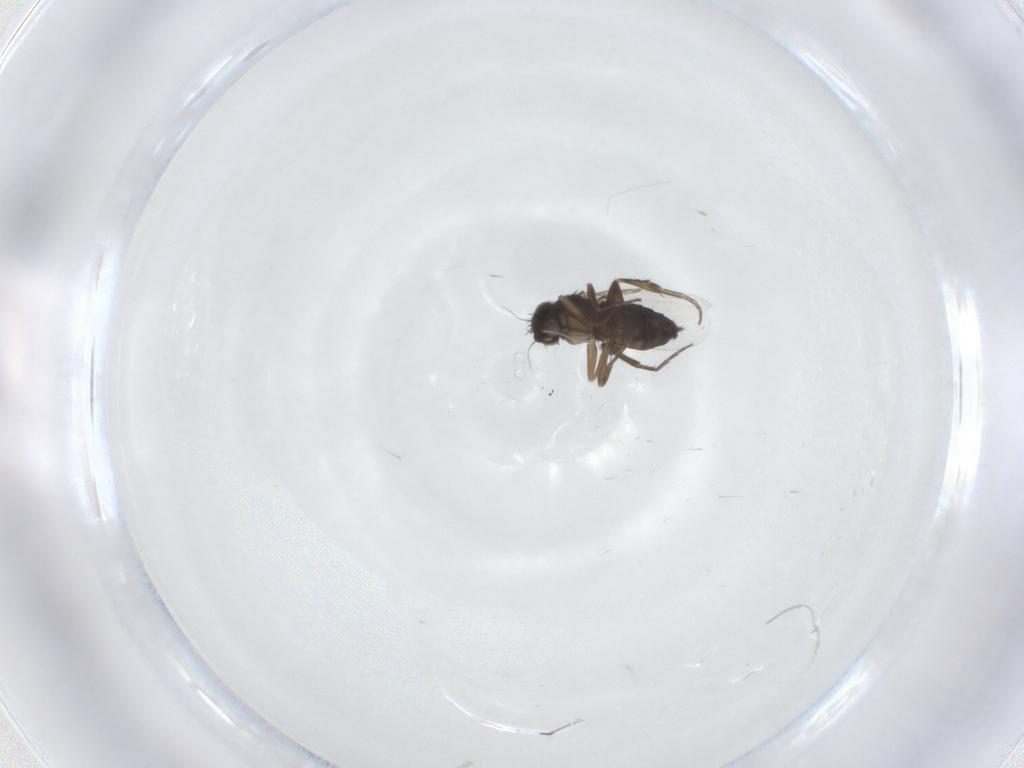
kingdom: Animalia
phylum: Arthropoda
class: Insecta
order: Diptera
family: Phoridae
